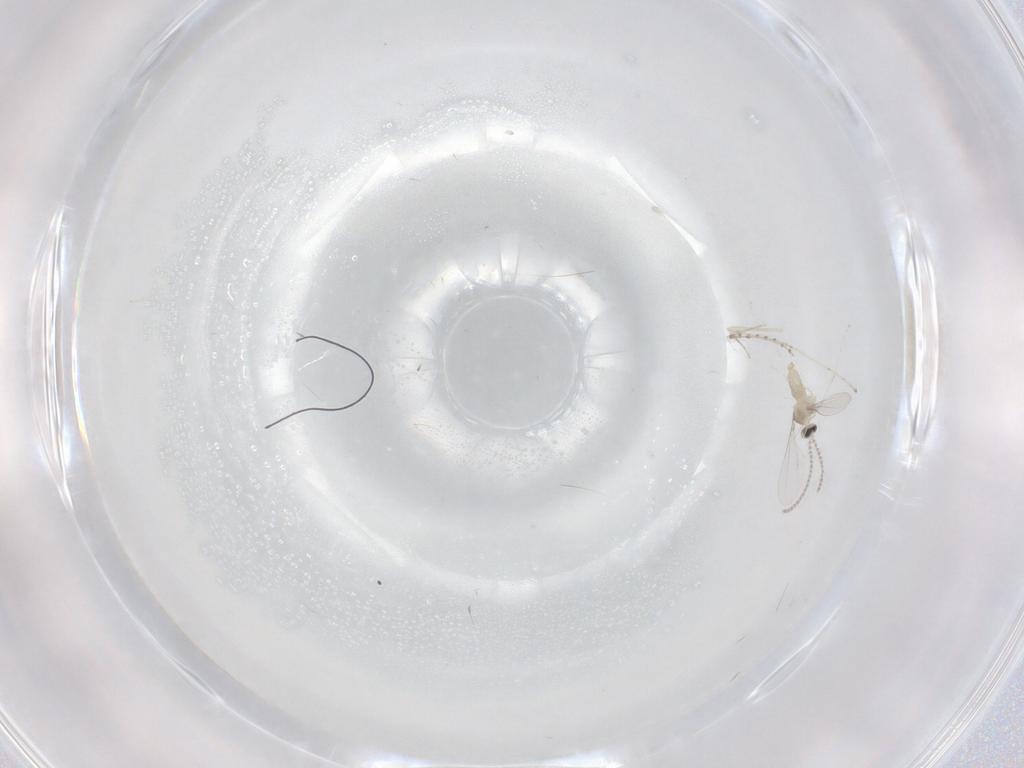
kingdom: Animalia
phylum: Arthropoda
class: Insecta
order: Diptera
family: Cecidomyiidae
